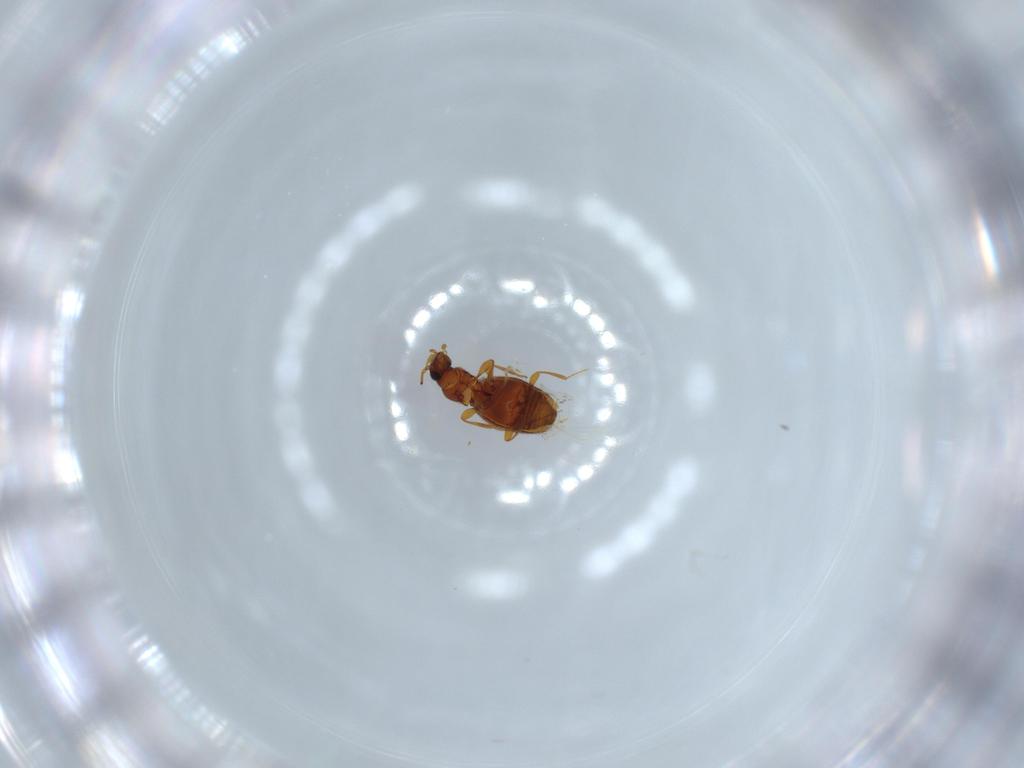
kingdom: Animalia
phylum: Arthropoda
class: Insecta
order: Coleoptera
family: Staphylinidae
